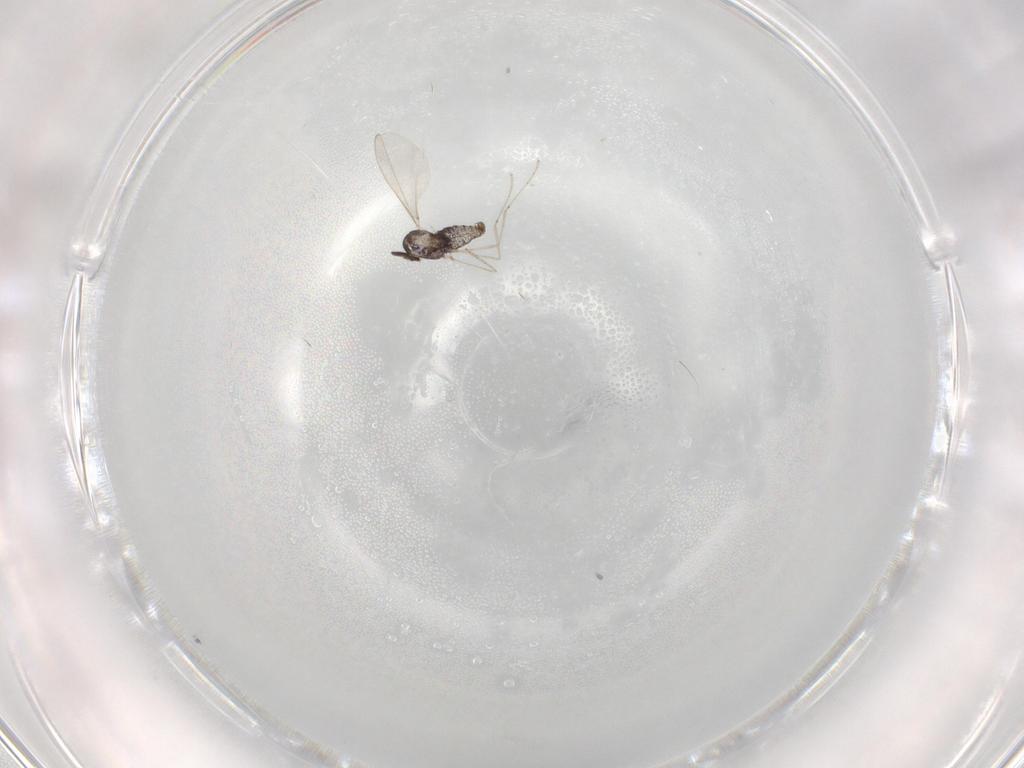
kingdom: Animalia
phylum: Arthropoda
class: Insecta
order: Diptera
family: Cecidomyiidae
